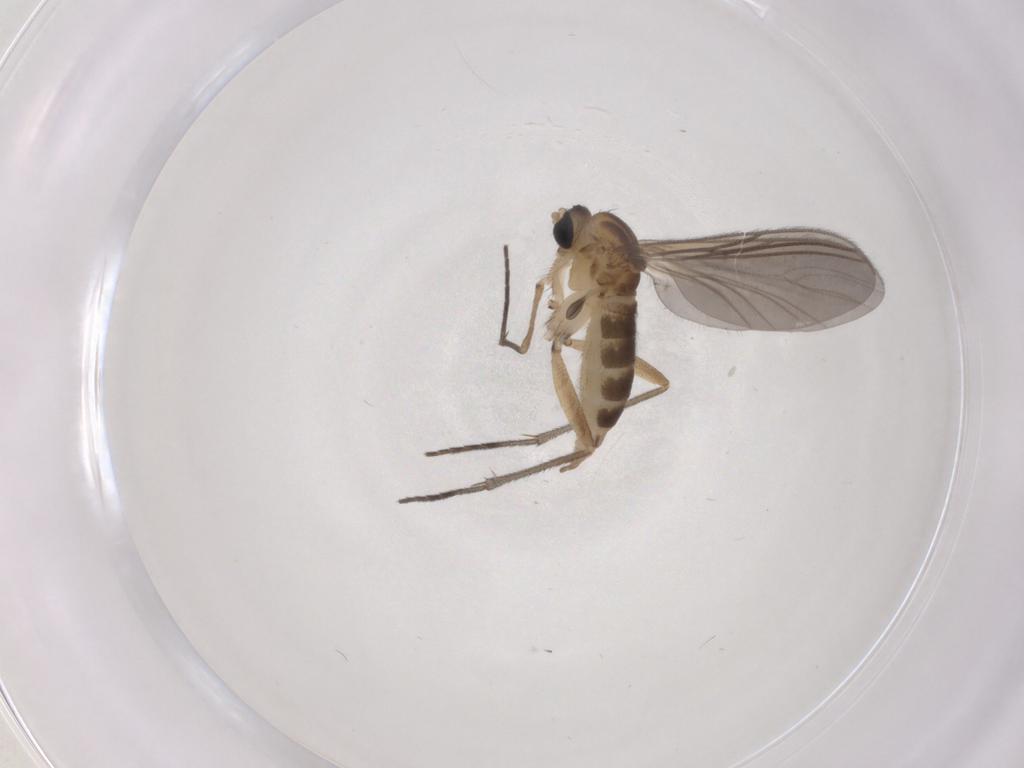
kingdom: Animalia
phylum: Arthropoda
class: Insecta
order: Diptera
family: Sciaridae
